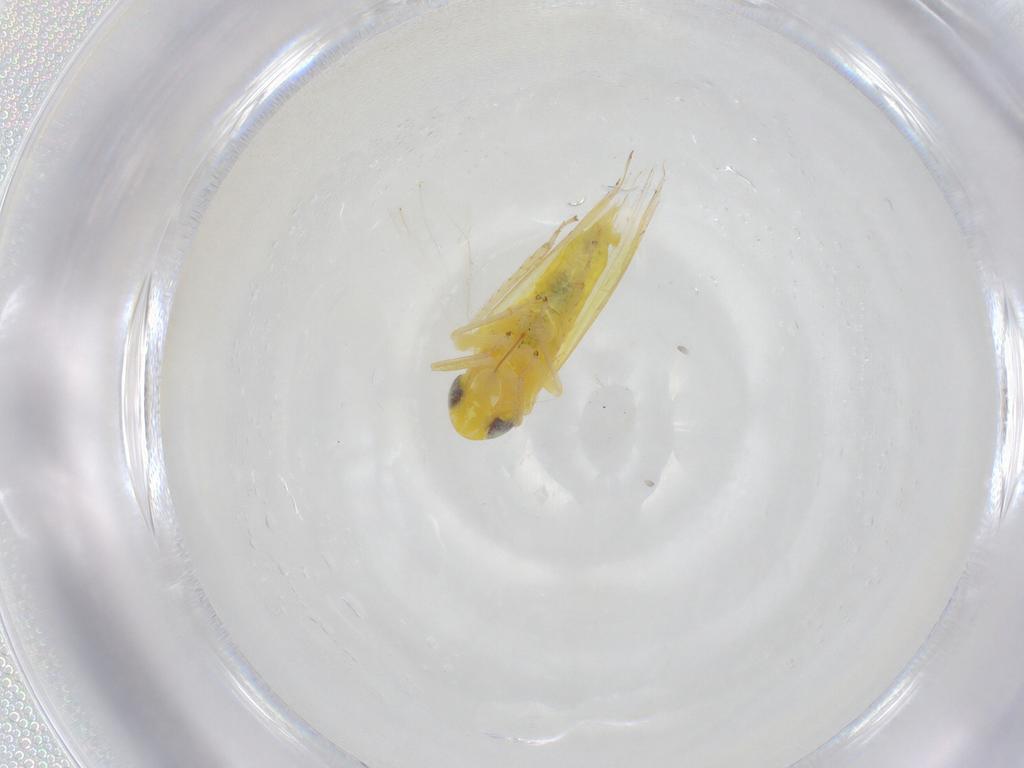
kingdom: Animalia
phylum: Arthropoda
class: Insecta
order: Hemiptera
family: Cicadellidae
